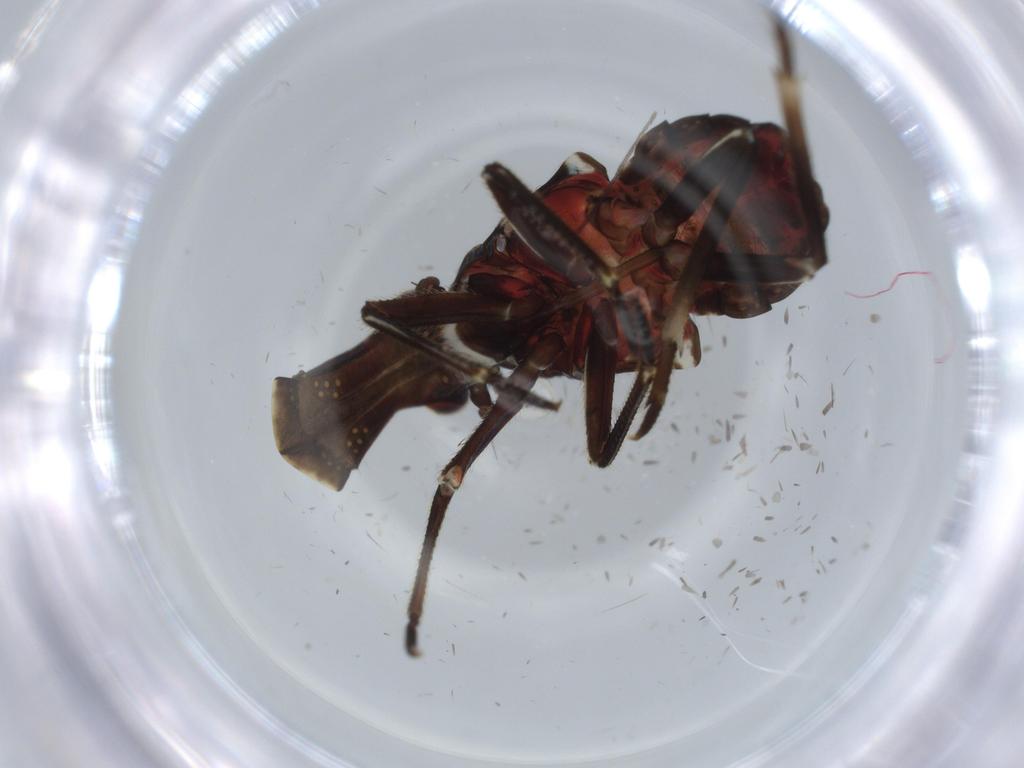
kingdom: Animalia
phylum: Arthropoda
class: Insecta
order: Hemiptera
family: Fulgoridae
